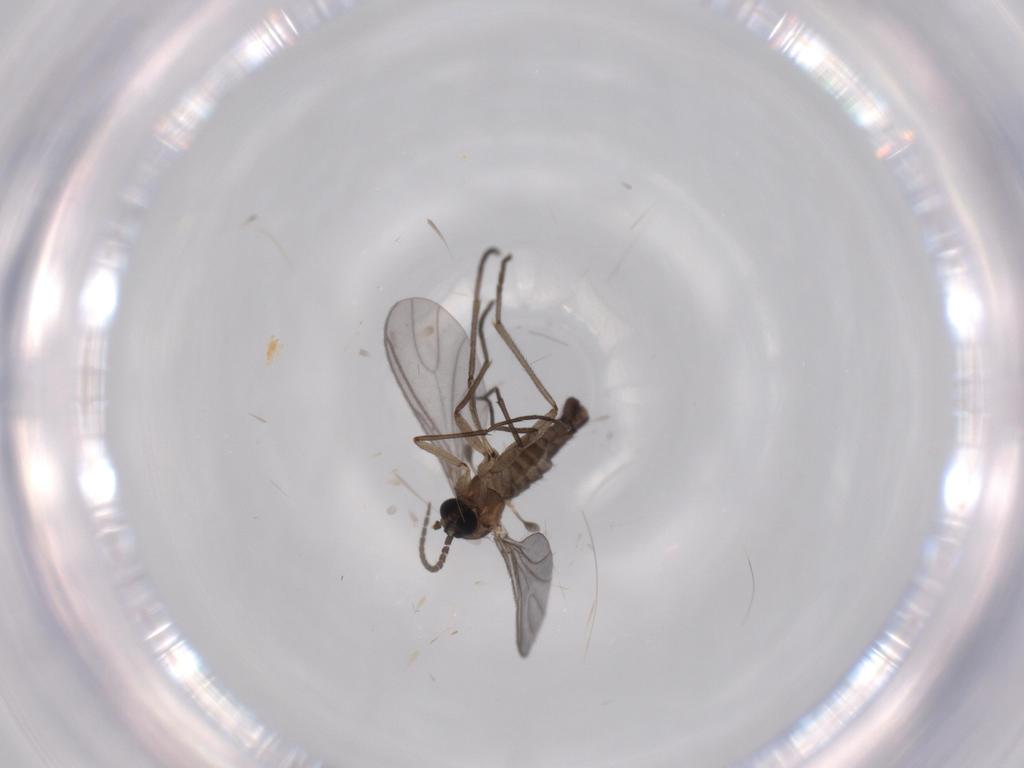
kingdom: Animalia
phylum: Arthropoda
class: Insecta
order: Diptera
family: Sciaridae
